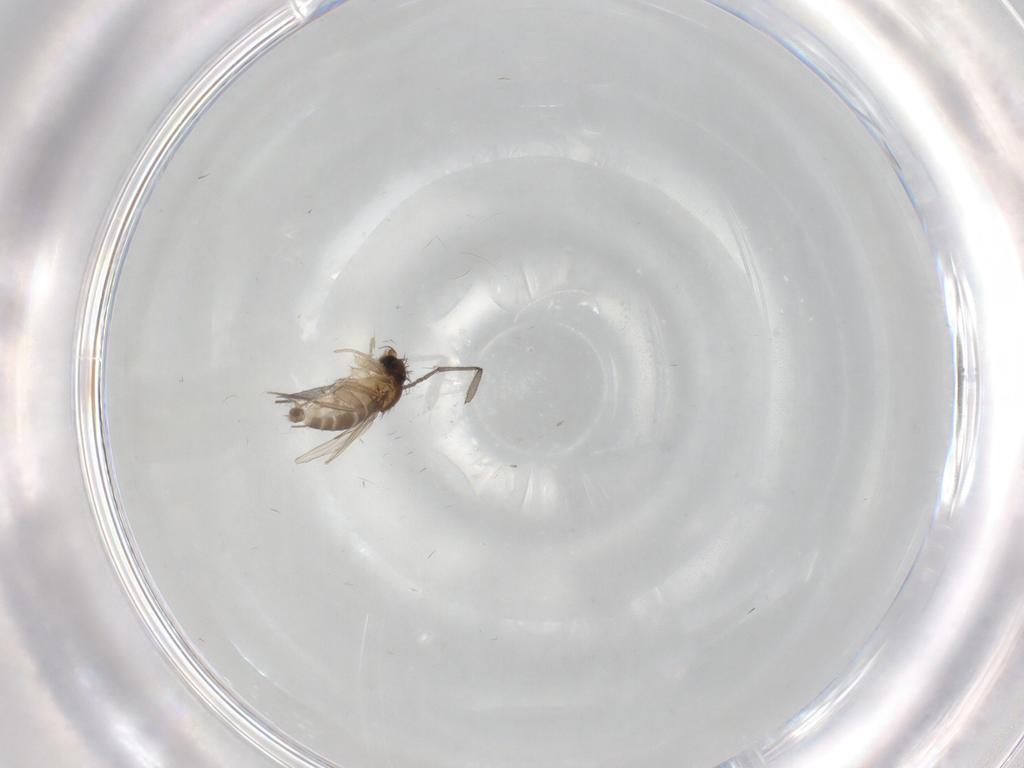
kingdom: Animalia
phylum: Arthropoda
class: Insecta
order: Diptera
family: Phoridae
